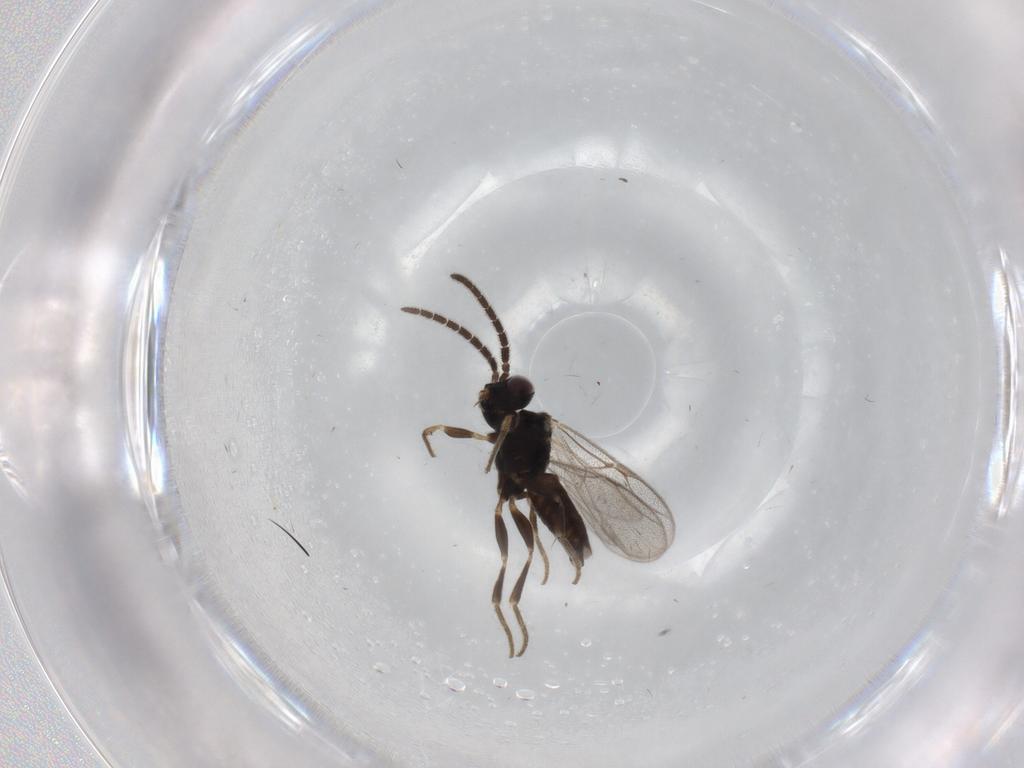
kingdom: Animalia
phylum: Arthropoda
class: Insecta
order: Hymenoptera
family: Dryinidae
